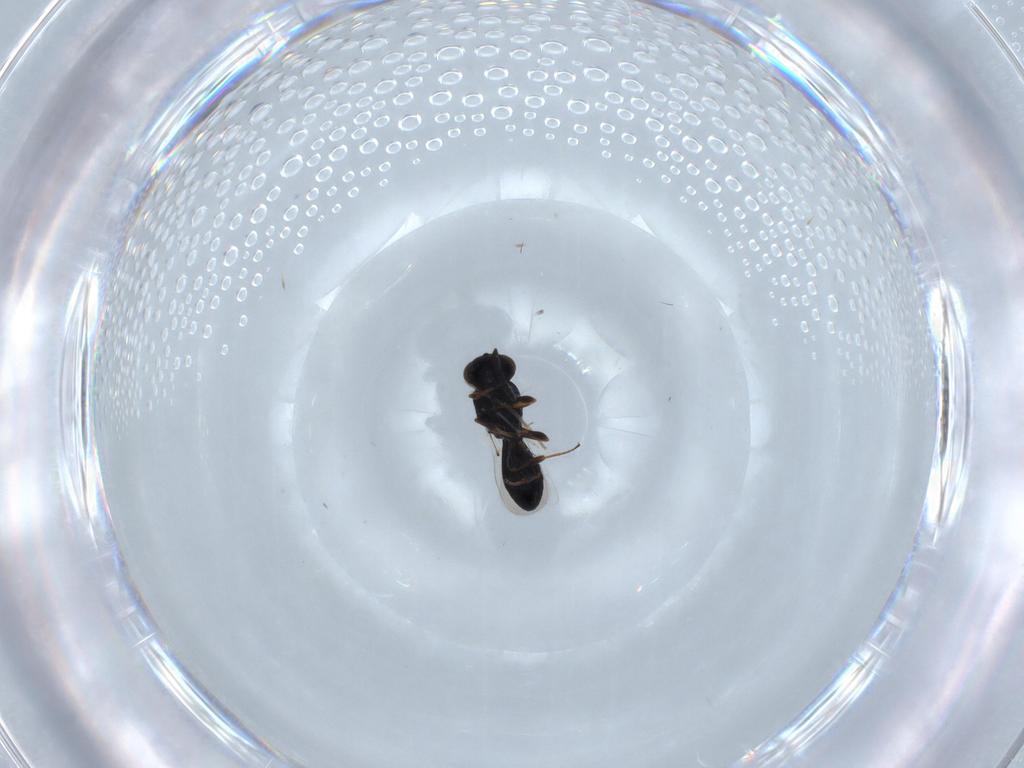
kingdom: Animalia
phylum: Arthropoda
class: Insecta
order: Hymenoptera
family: Platygastridae
